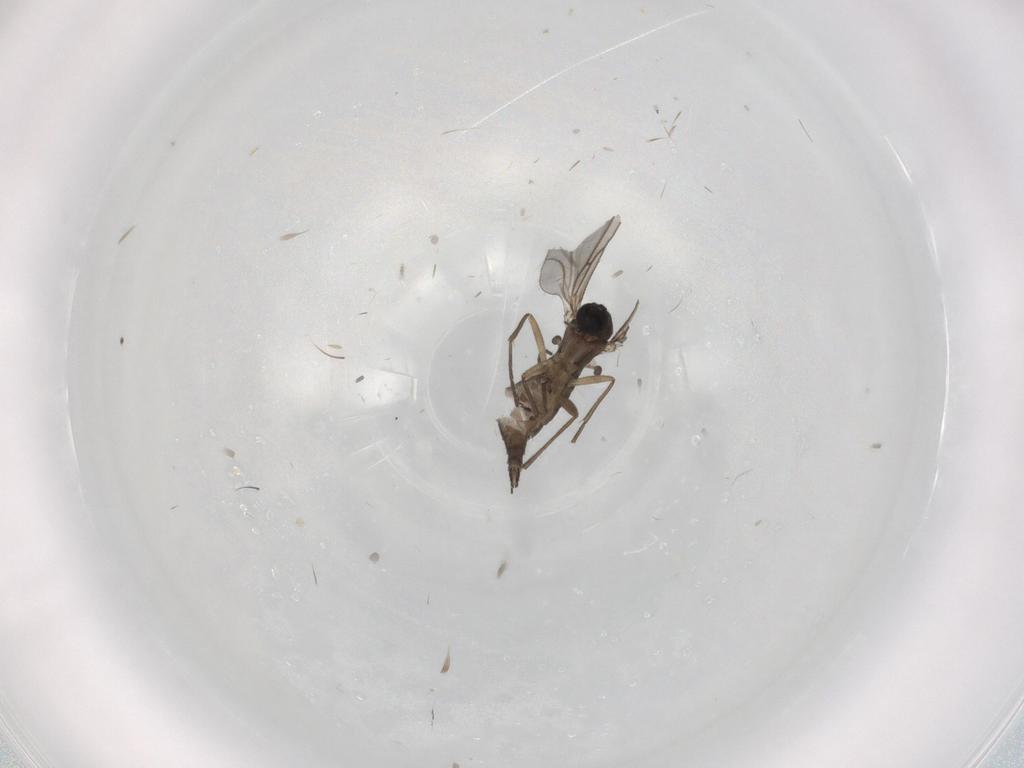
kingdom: Animalia
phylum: Arthropoda
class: Insecta
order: Diptera
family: Sciaridae
